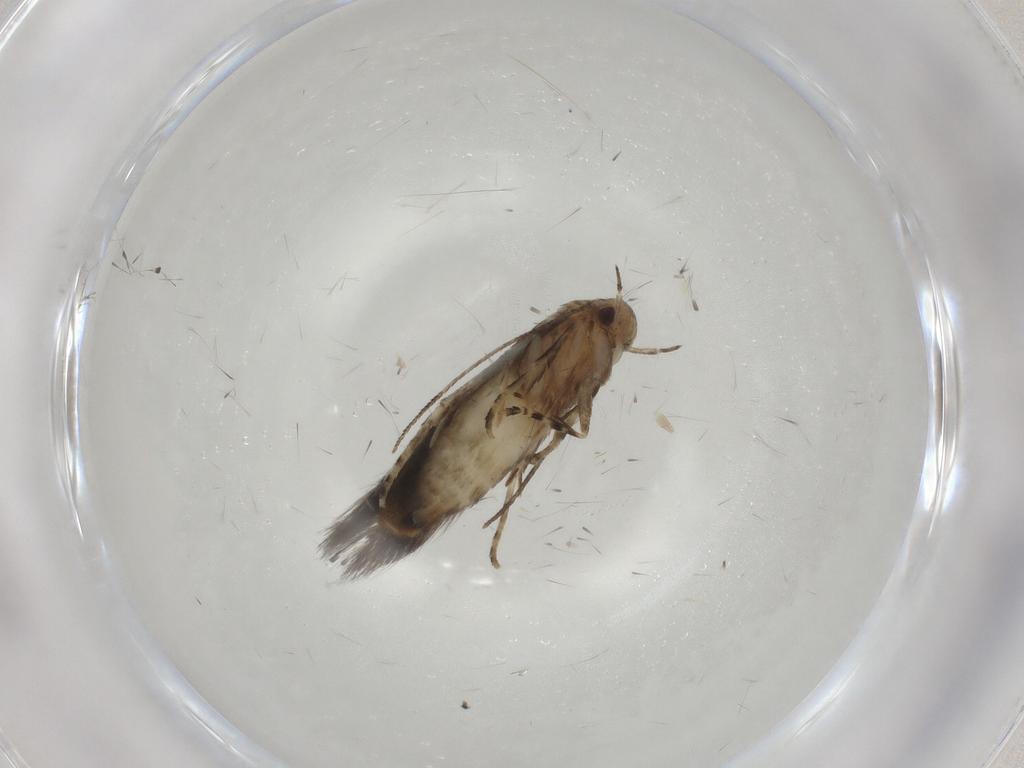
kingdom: Animalia
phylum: Arthropoda
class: Insecta
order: Lepidoptera
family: Elachistidae
